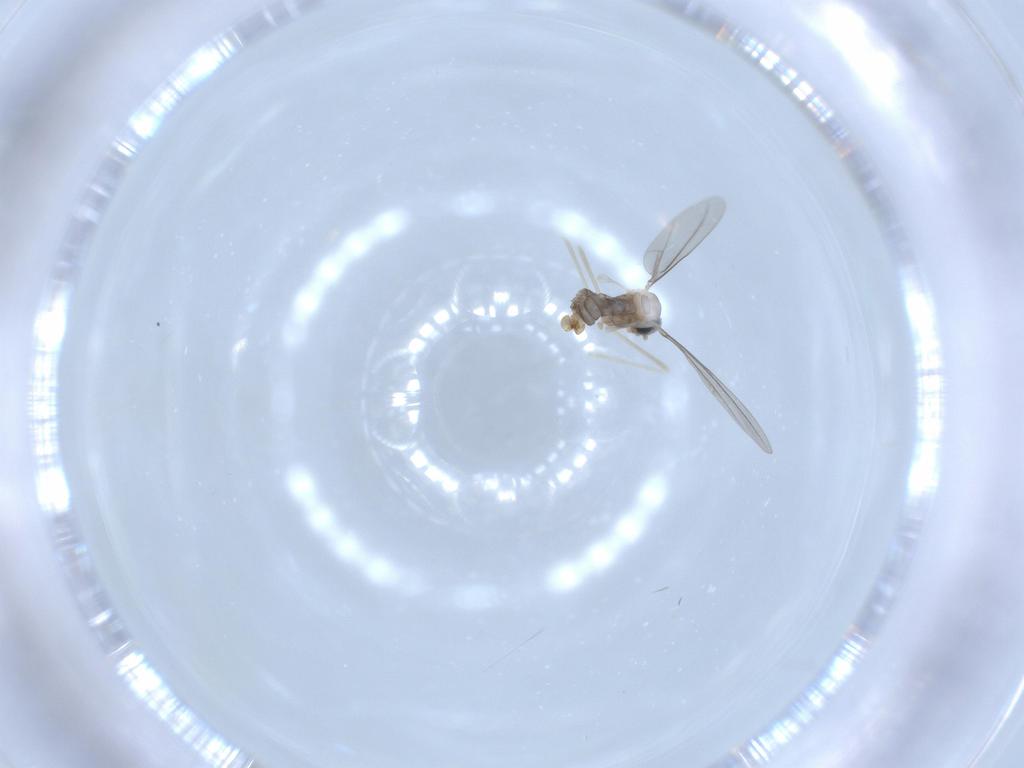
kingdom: Animalia
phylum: Arthropoda
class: Insecta
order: Diptera
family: Cecidomyiidae
